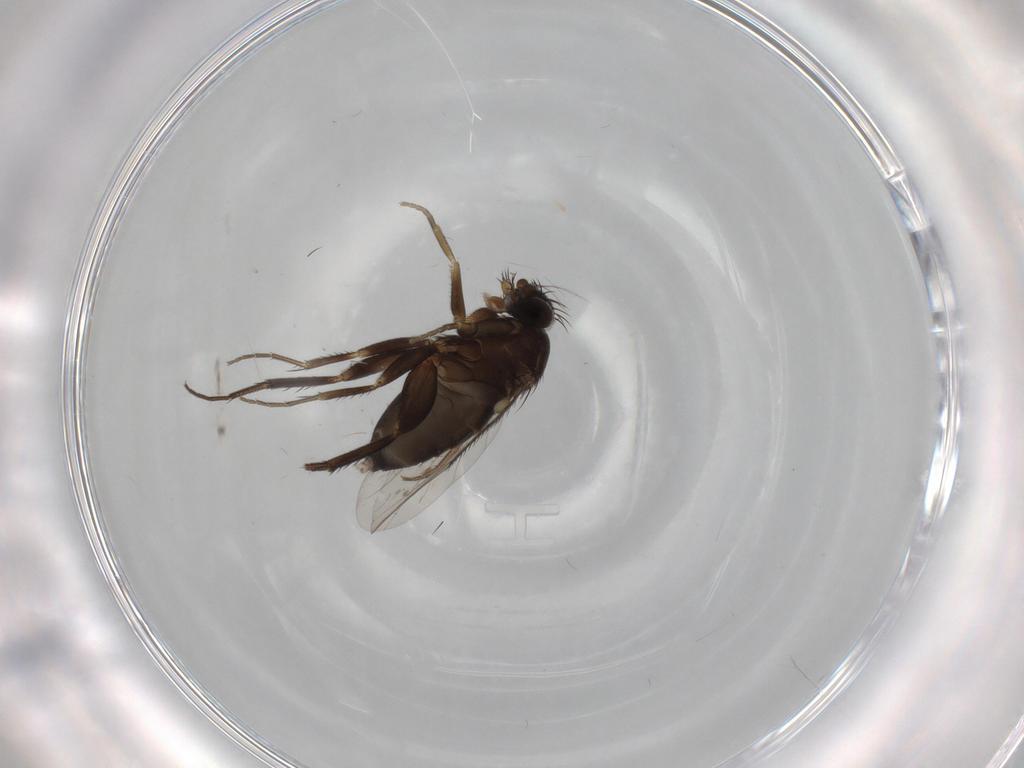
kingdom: Animalia
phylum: Arthropoda
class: Insecta
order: Diptera
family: Phoridae
